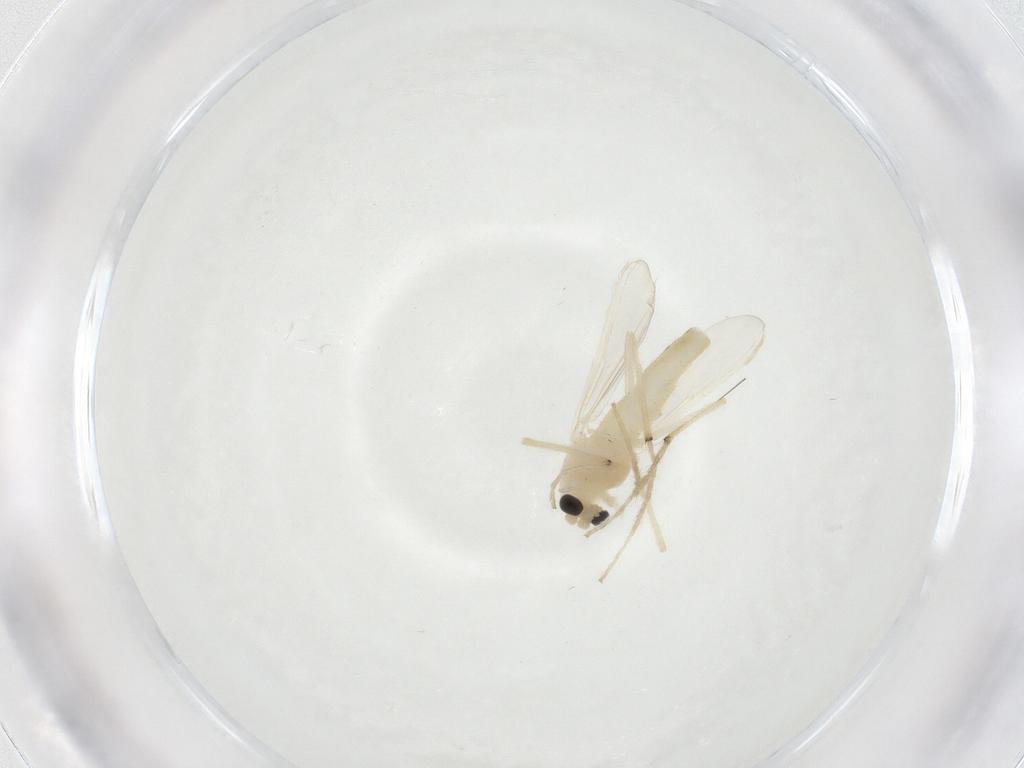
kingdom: Animalia
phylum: Arthropoda
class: Insecta
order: Diptera
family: Chironomidae
